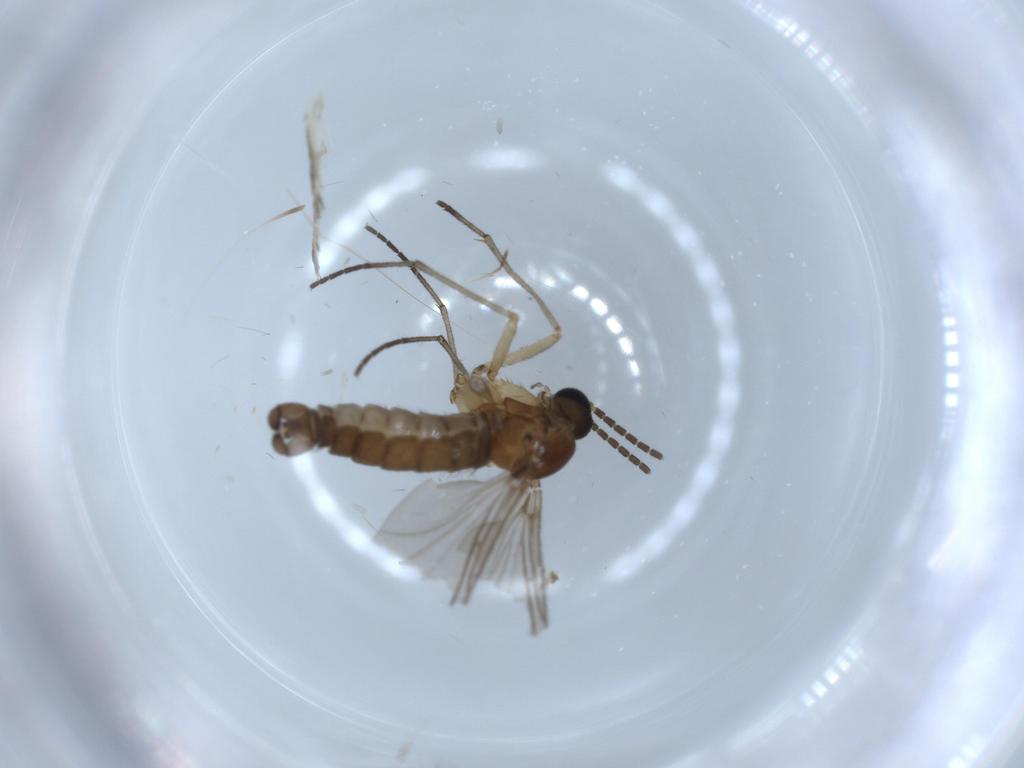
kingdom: Animalia
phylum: Arthropoda
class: Insecta
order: Diptera
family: Sciaridae
